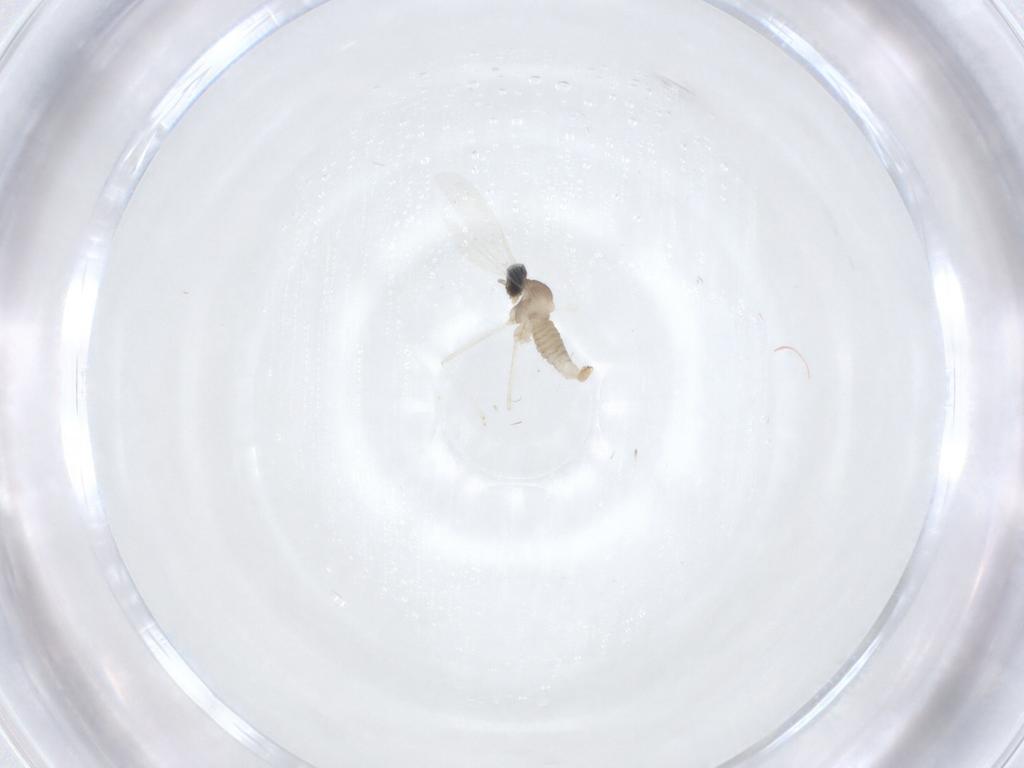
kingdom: Animalia
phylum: Arthropoda
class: Insecta
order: Diptera
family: Cecidomyiidae
